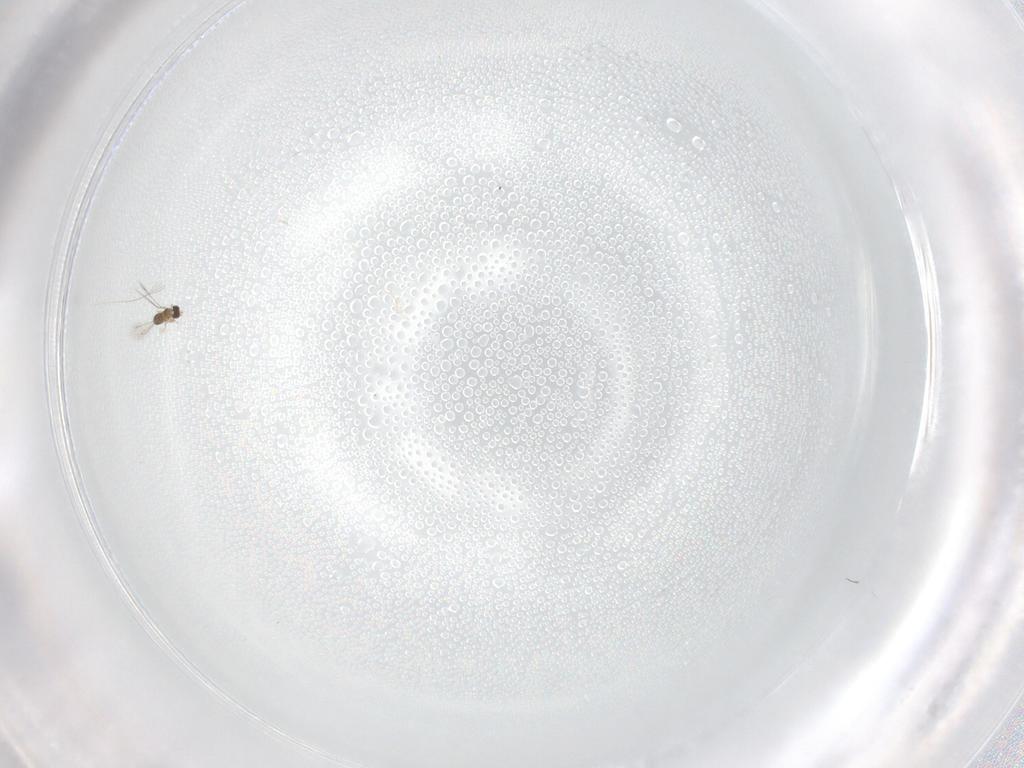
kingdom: Animalia
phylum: Arthropoda
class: Insecta
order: Hymenoptera
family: Mymaridae
